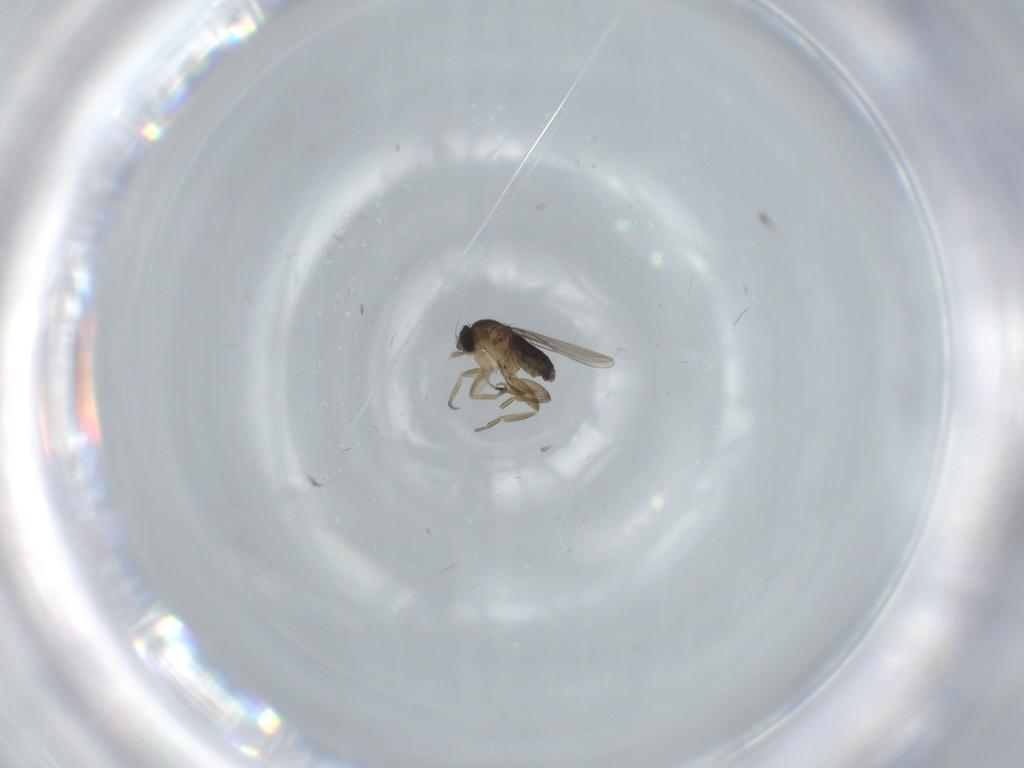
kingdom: Animalia
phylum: Arthropoda
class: Insecta
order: Diptera
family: Phoridae
